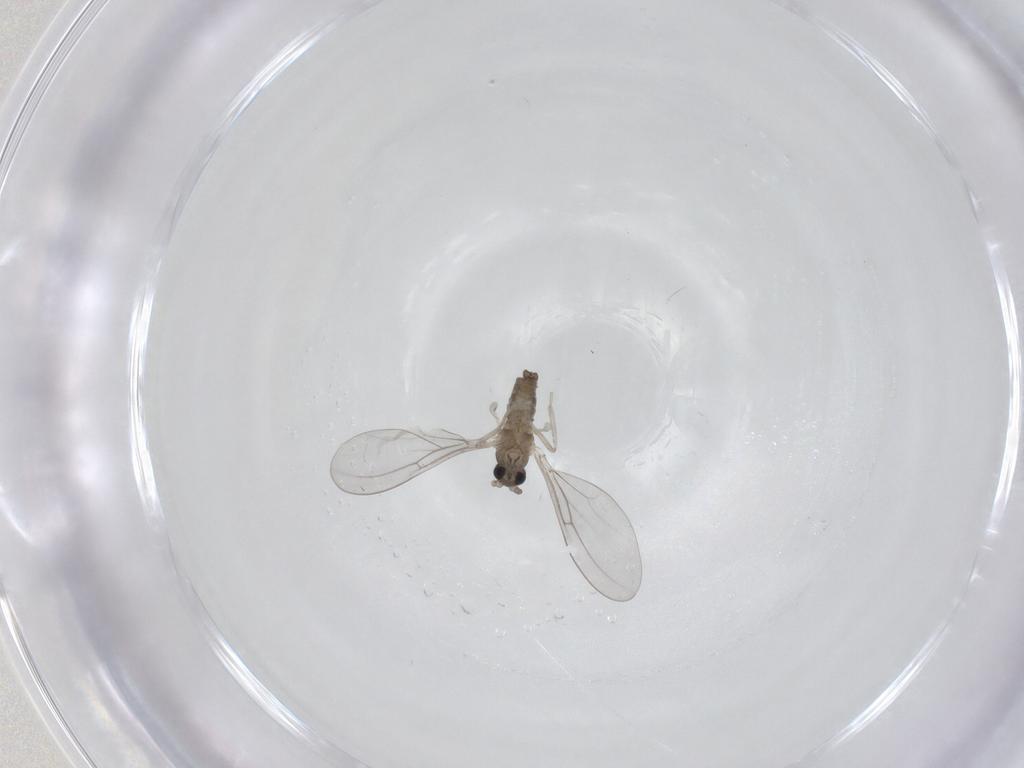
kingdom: Animalia
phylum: Arthropoda
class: Insecta
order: Diptera
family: Cecidomyiidae
